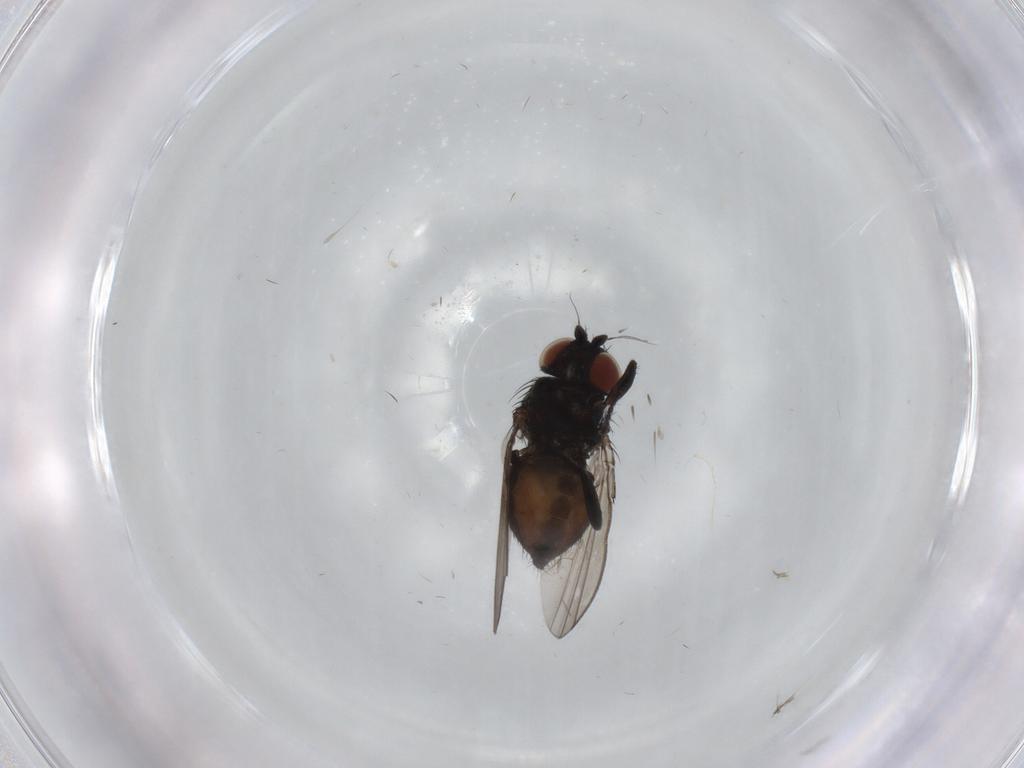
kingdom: Animalia
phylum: Arthropoda
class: Insecta
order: Diptera
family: Milichiidae
